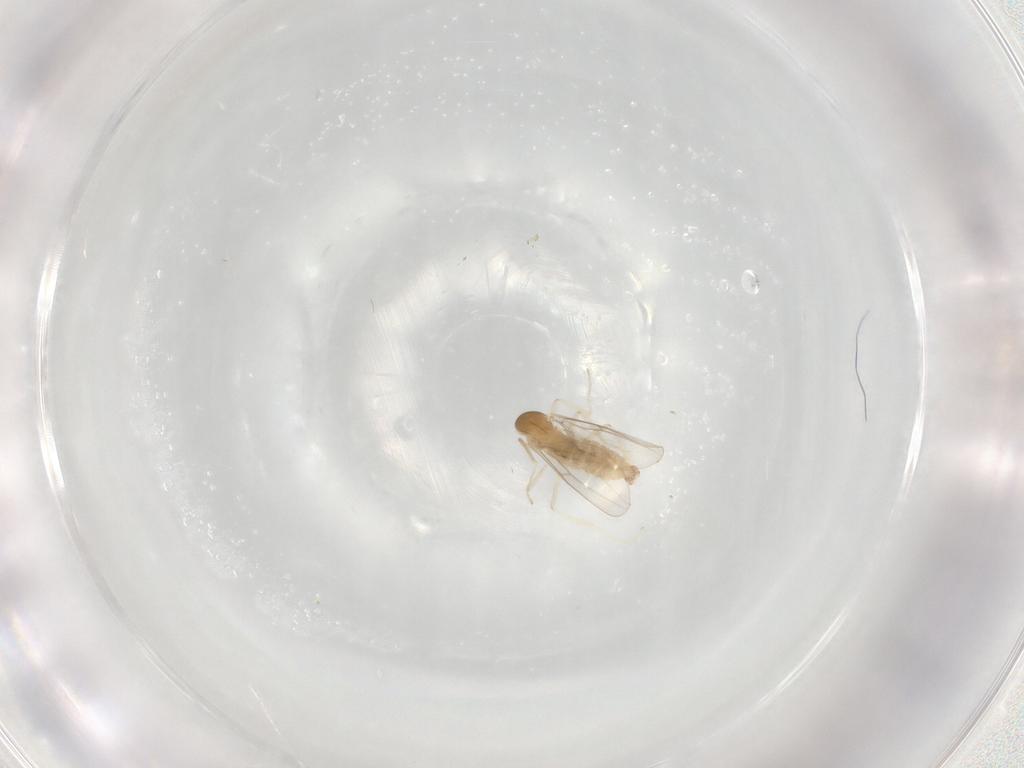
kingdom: Animalia
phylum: Arthropoda
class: Insecta
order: Diptera
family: Cecidomyiidae
